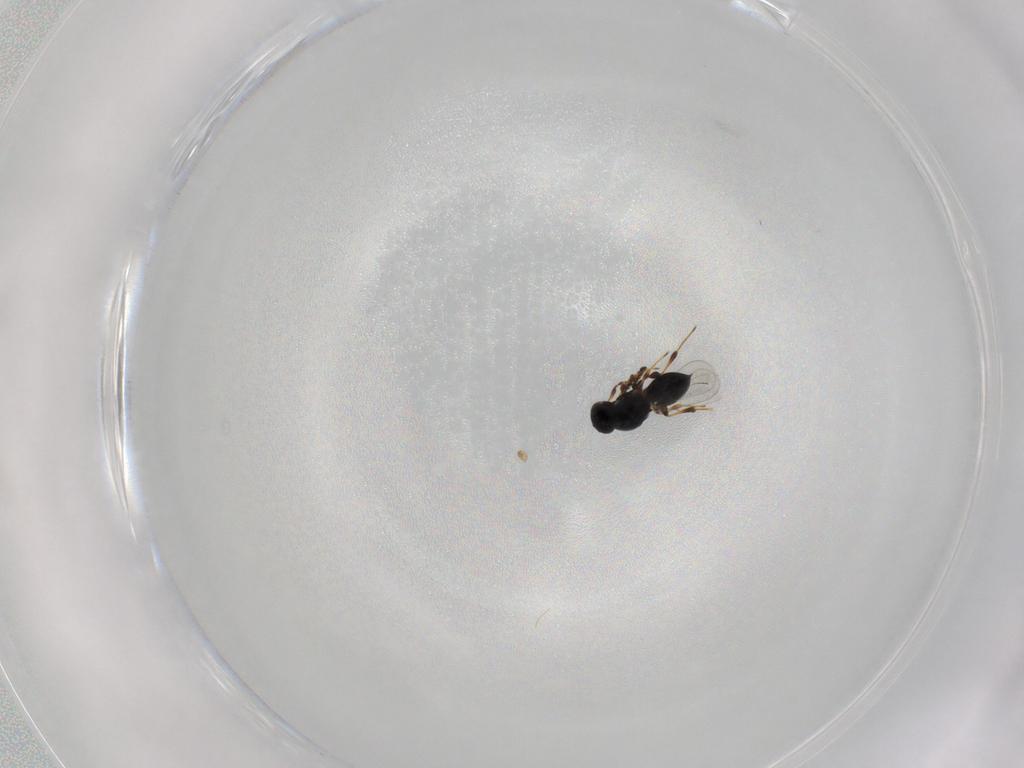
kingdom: Animalia
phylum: Arthropoda
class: Insecta
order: Hymenoptera
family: Platygastridae
